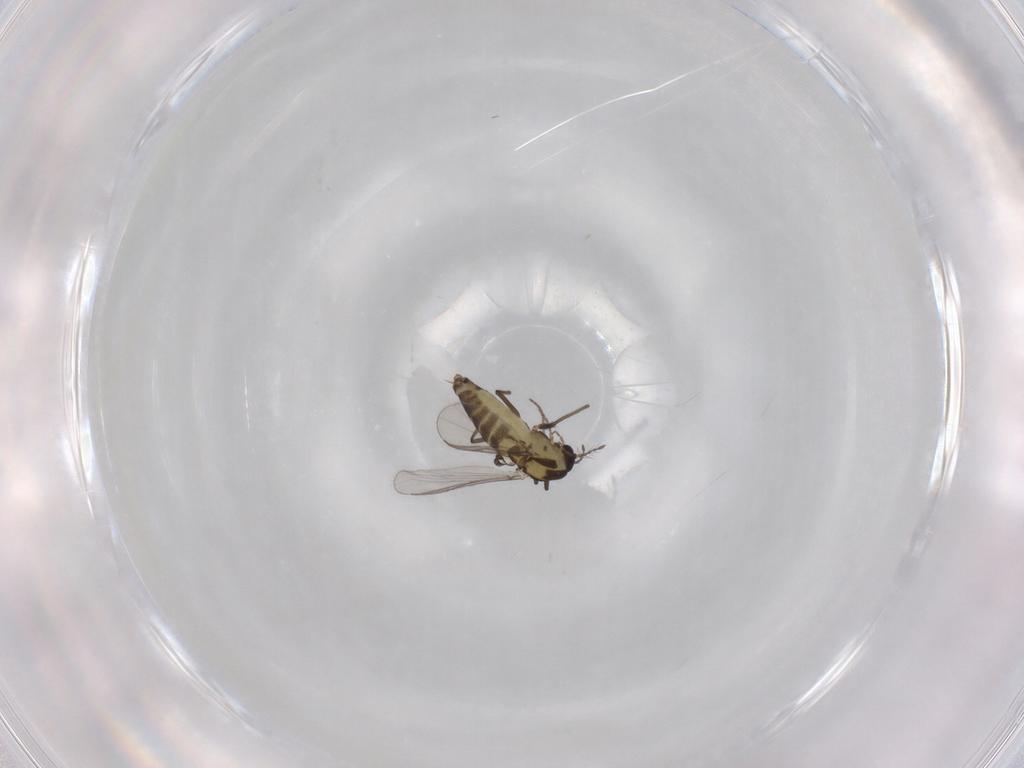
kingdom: Animalia
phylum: Arthropoda
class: Insecta
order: Diptera
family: Chironomidae
